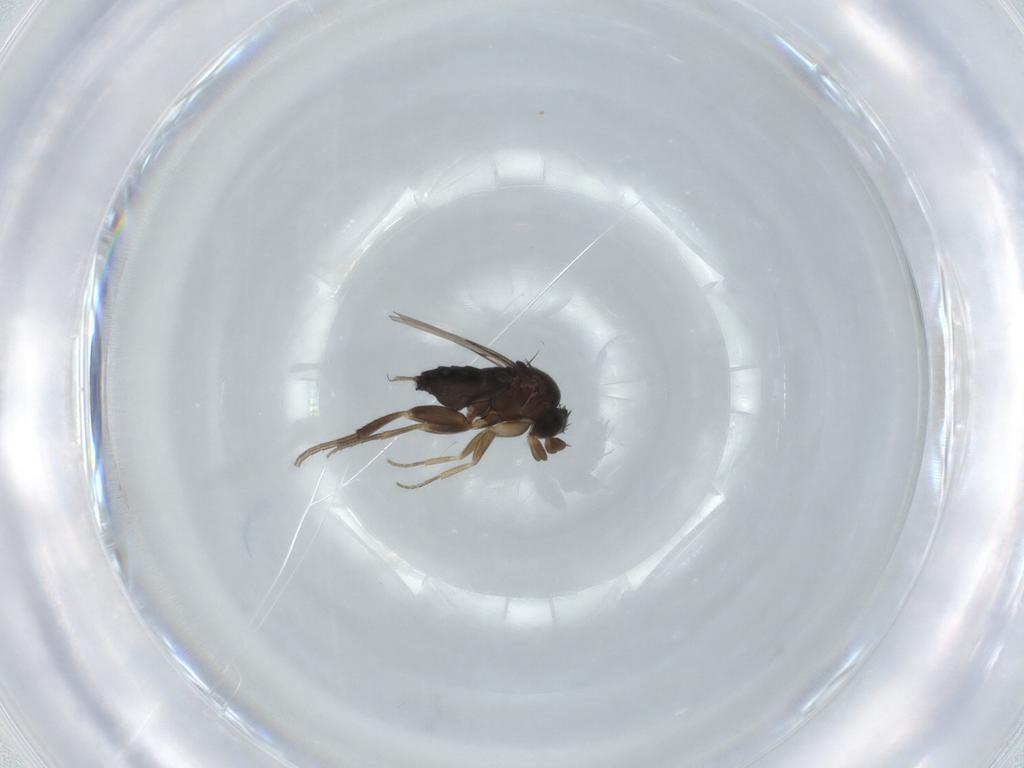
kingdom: Animalia
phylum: Arthropoda
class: Insecta
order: Diptera
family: Phoridae
